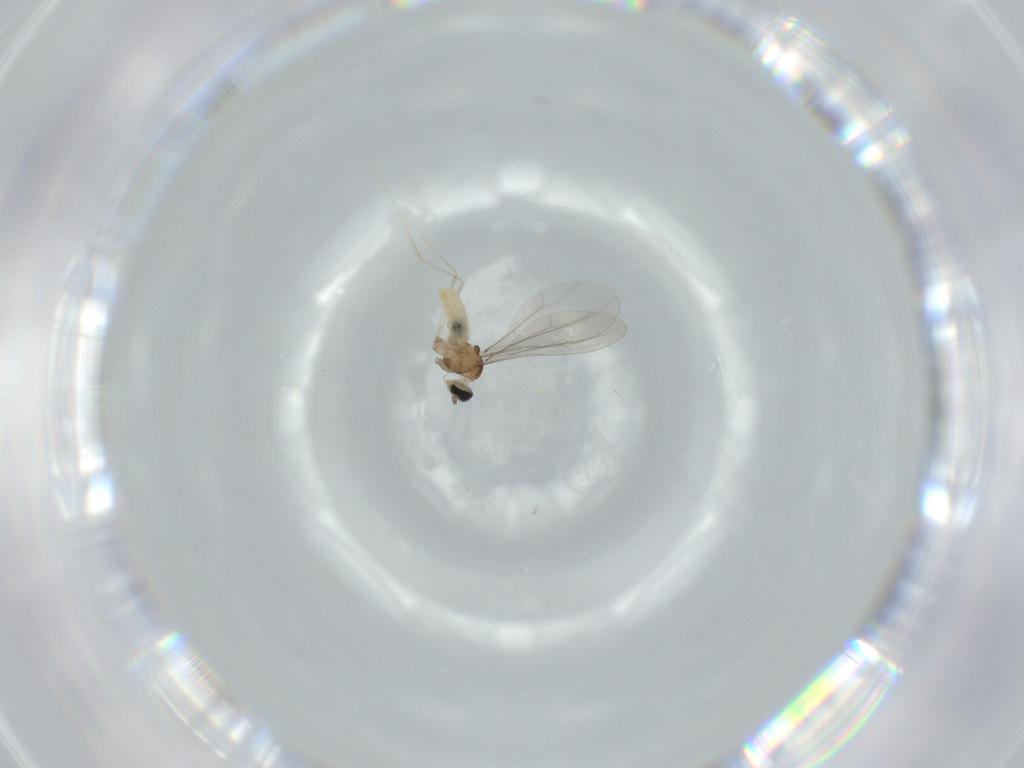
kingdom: Animalia
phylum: Arthropoda
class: Insecta
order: Diptera
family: Cecidomyiidae
